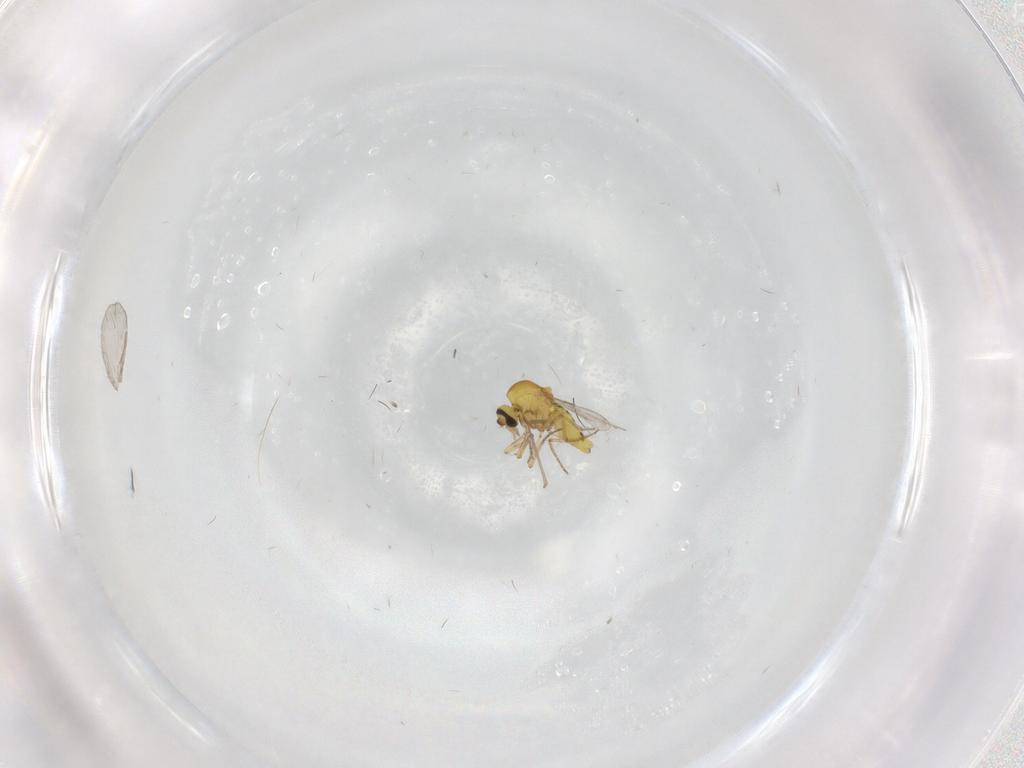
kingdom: Animalia
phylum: Arthropoda
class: Insecta
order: Diptera
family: Ceratopogonidae
